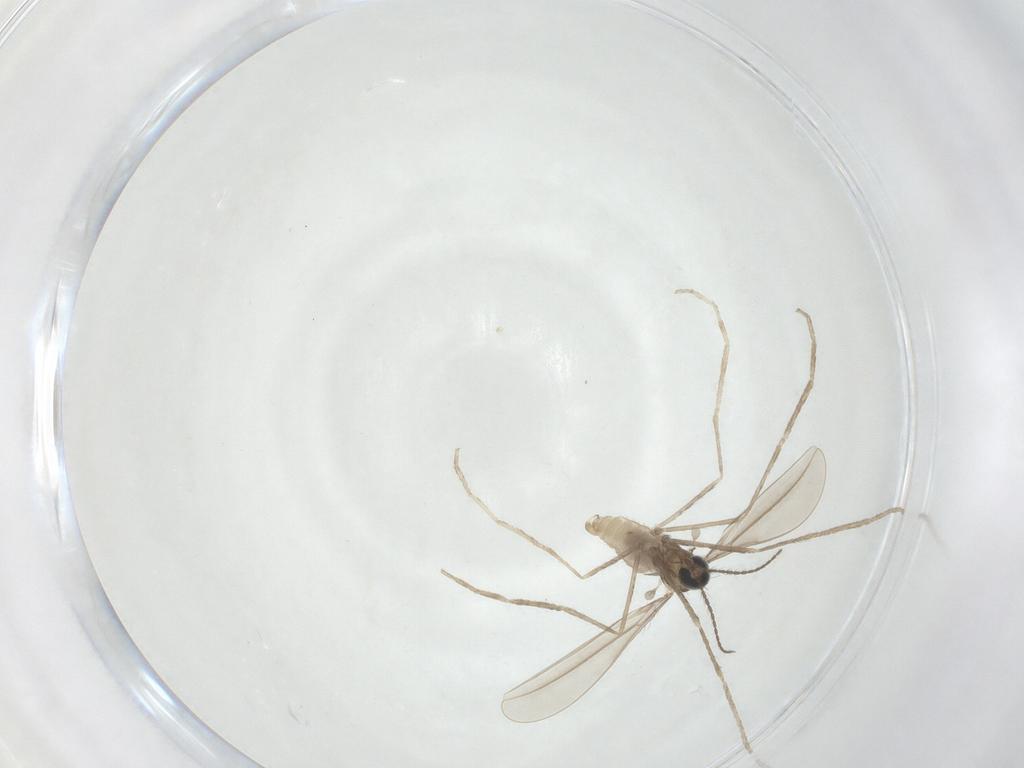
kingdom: Animalia
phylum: Arthropoda
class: Insecta
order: Diptera
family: Cecidomyiidae
